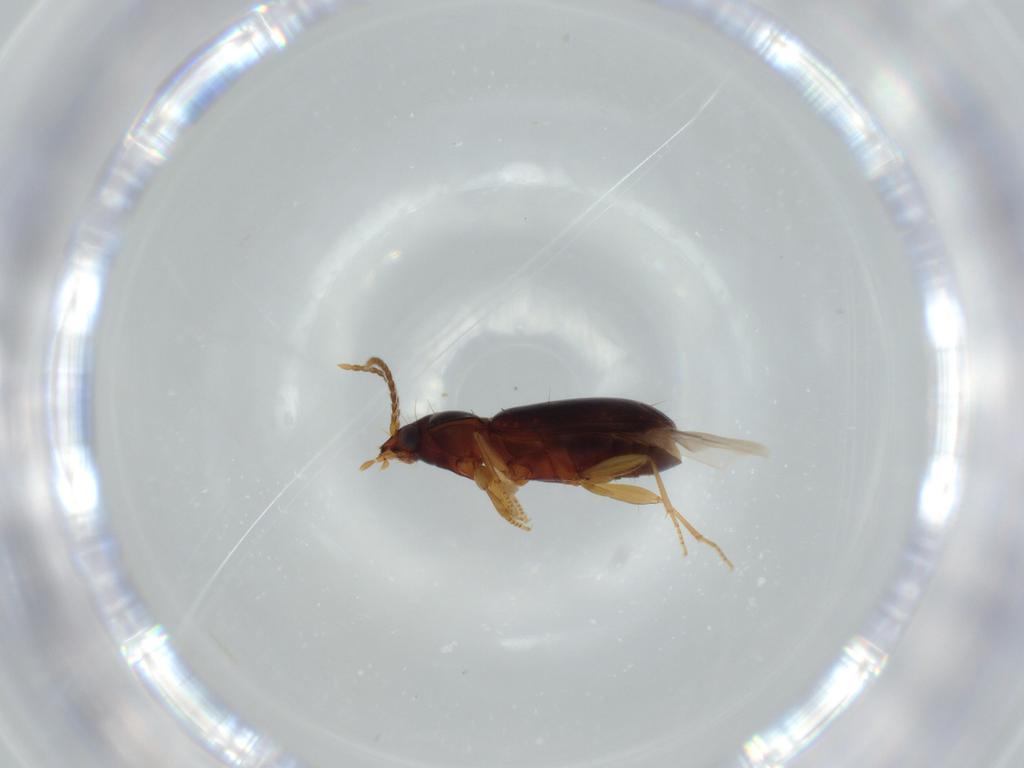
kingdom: Animalia
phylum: Arthropoda
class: Insecta
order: Coleoptera
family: Carabidae
